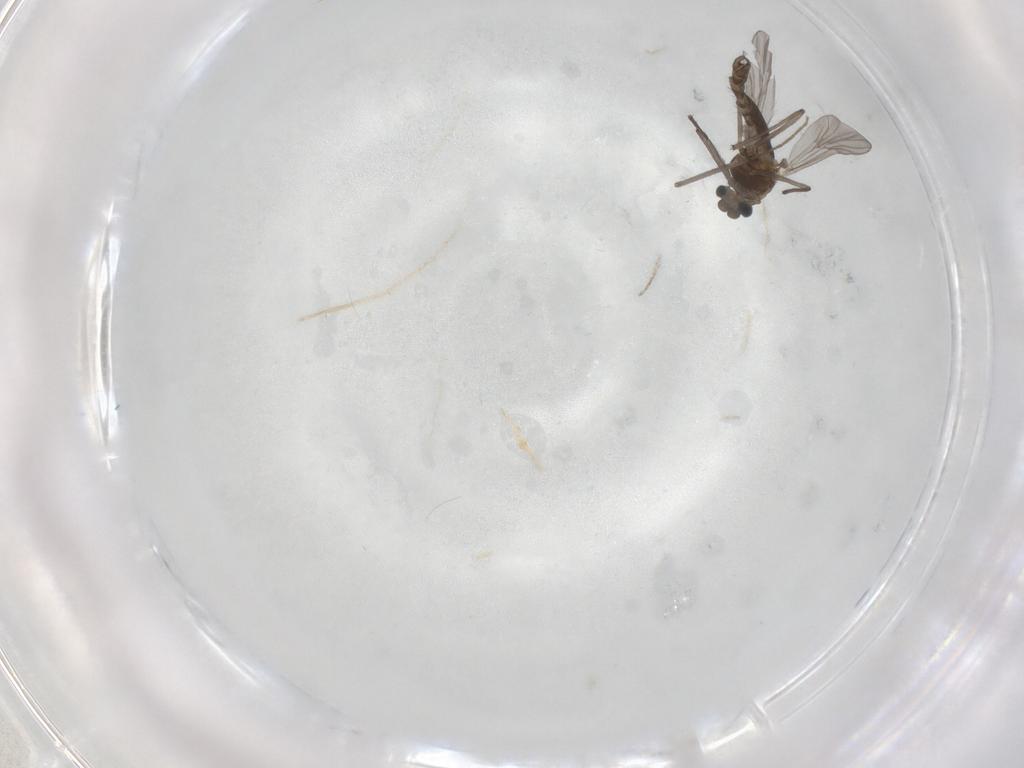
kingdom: Animalia
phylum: Arthropoda
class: Insecta
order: Diptera
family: Chironomidae
